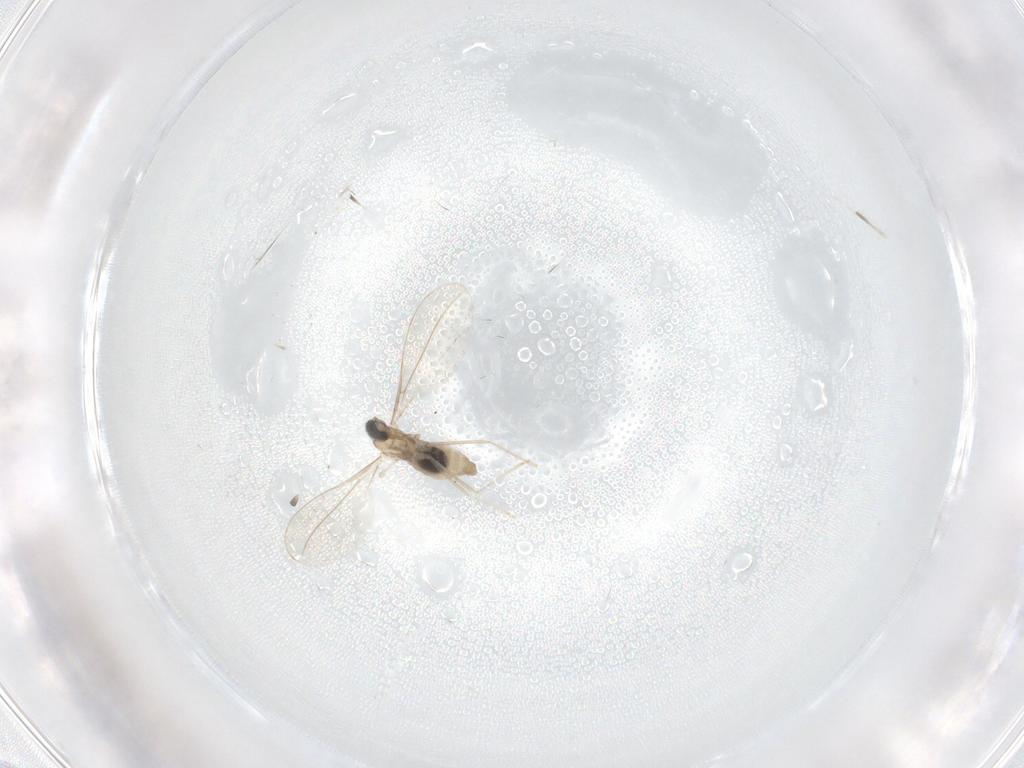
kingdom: Animalia
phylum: Arthropoda
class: Insecta
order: Diptera
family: Cecidomyiidae
